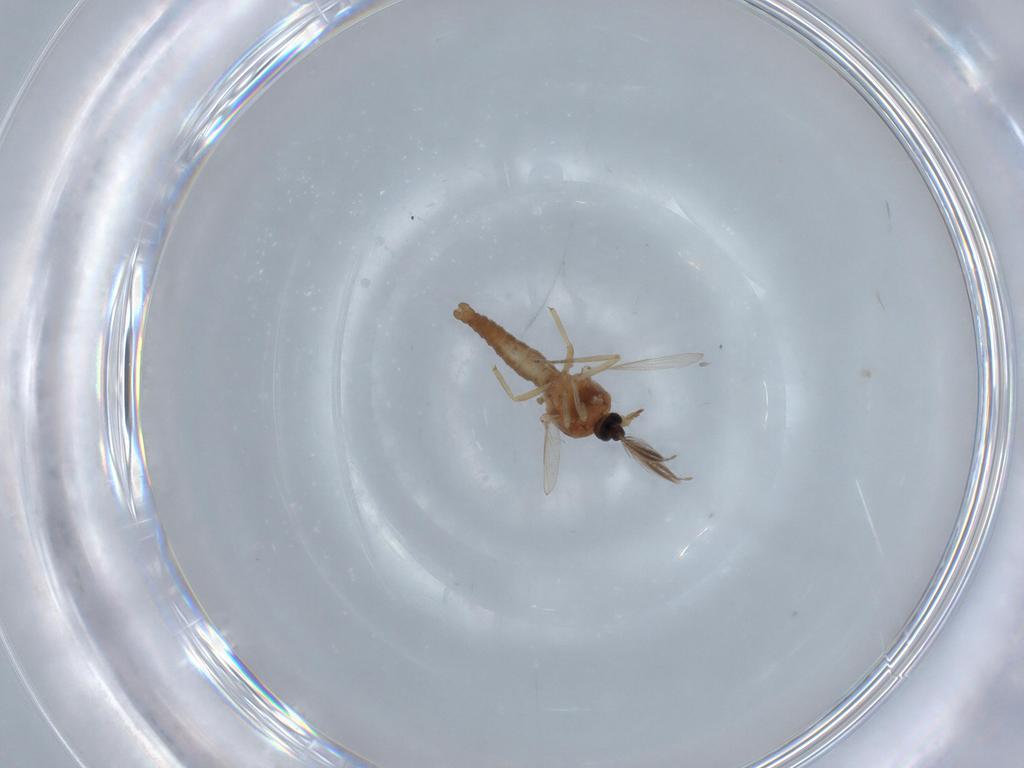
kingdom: Animalia
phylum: Arthropoda
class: Insecta
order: Diptera
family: Ceratopogonidae
